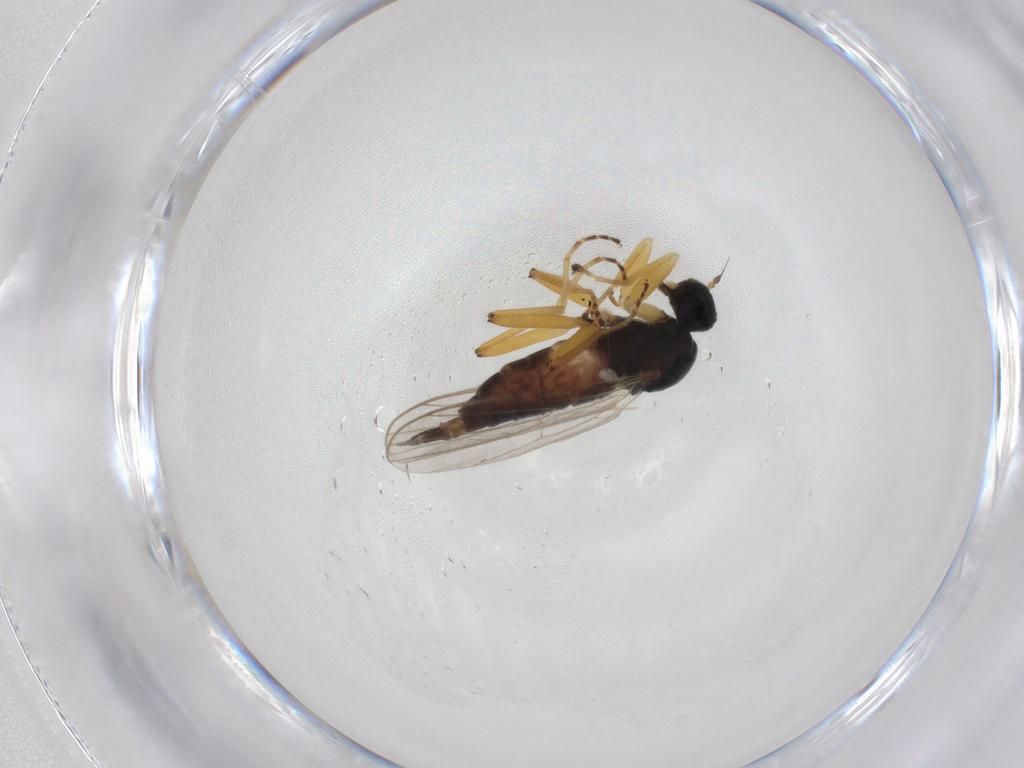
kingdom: Animalia
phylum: Arthropoda
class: Insecta
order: Diptera
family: Hybotidae
